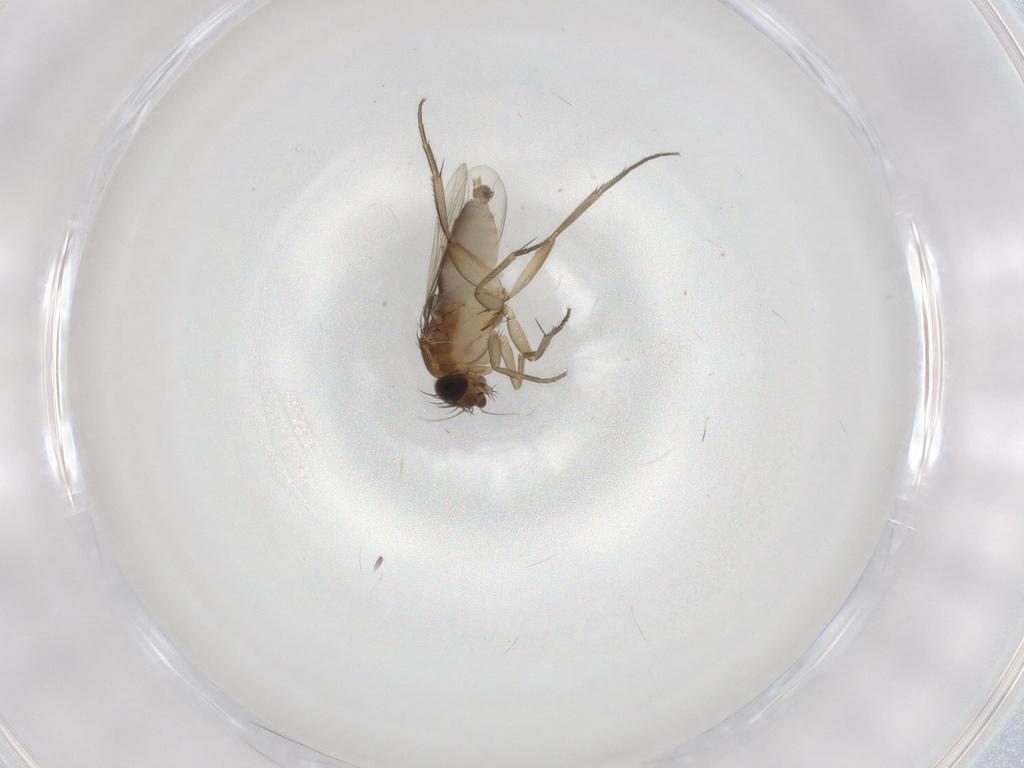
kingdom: Animalia
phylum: Arthropoda
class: Insecta
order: Diptera
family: Phoridae
